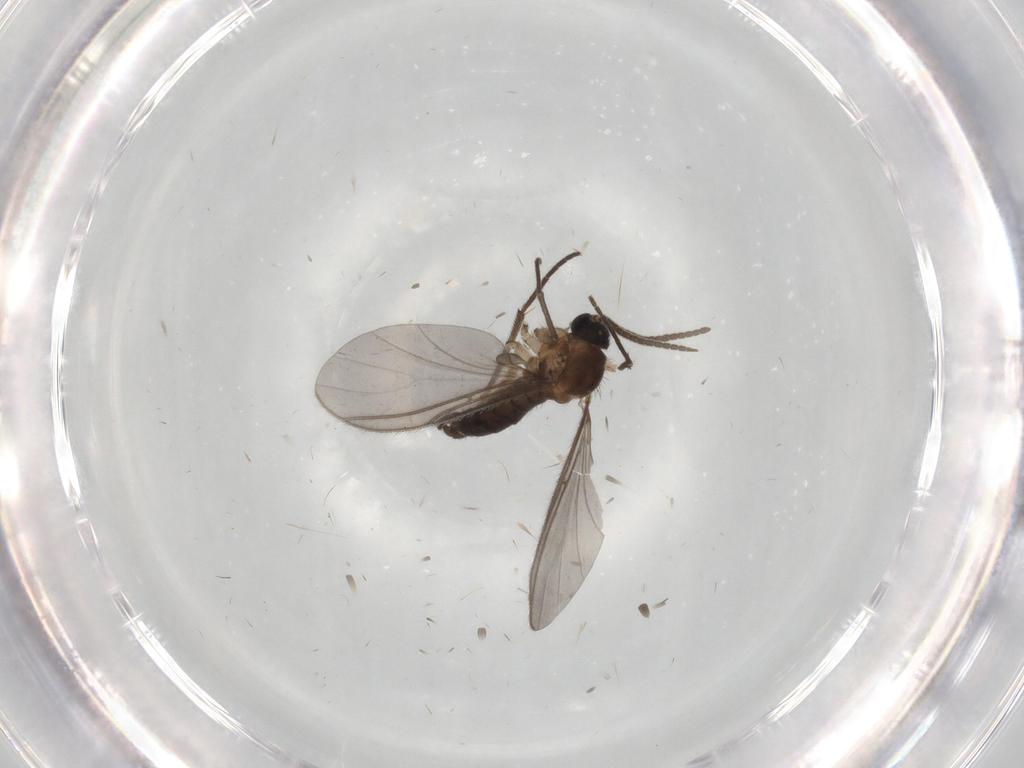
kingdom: Animalia
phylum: Arthropoda
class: Insecta
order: Diptera
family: Sciaridae
